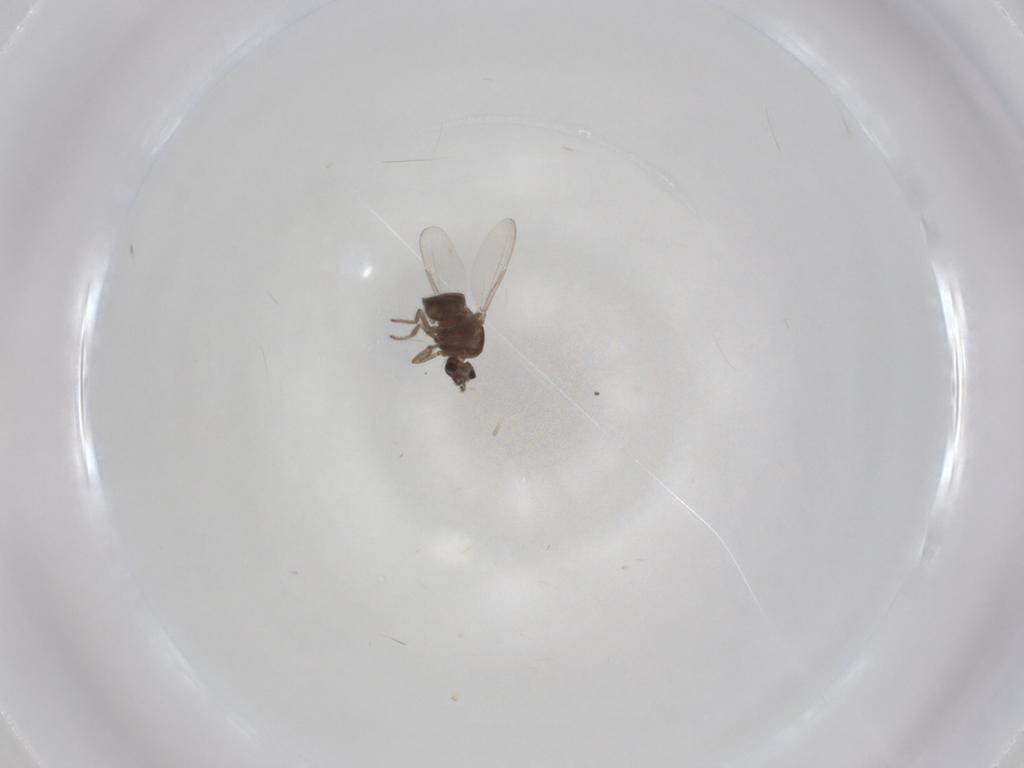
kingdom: Animalia
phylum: Arthropoda
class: Insecta
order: Diptera
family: Ceratopogonidae
